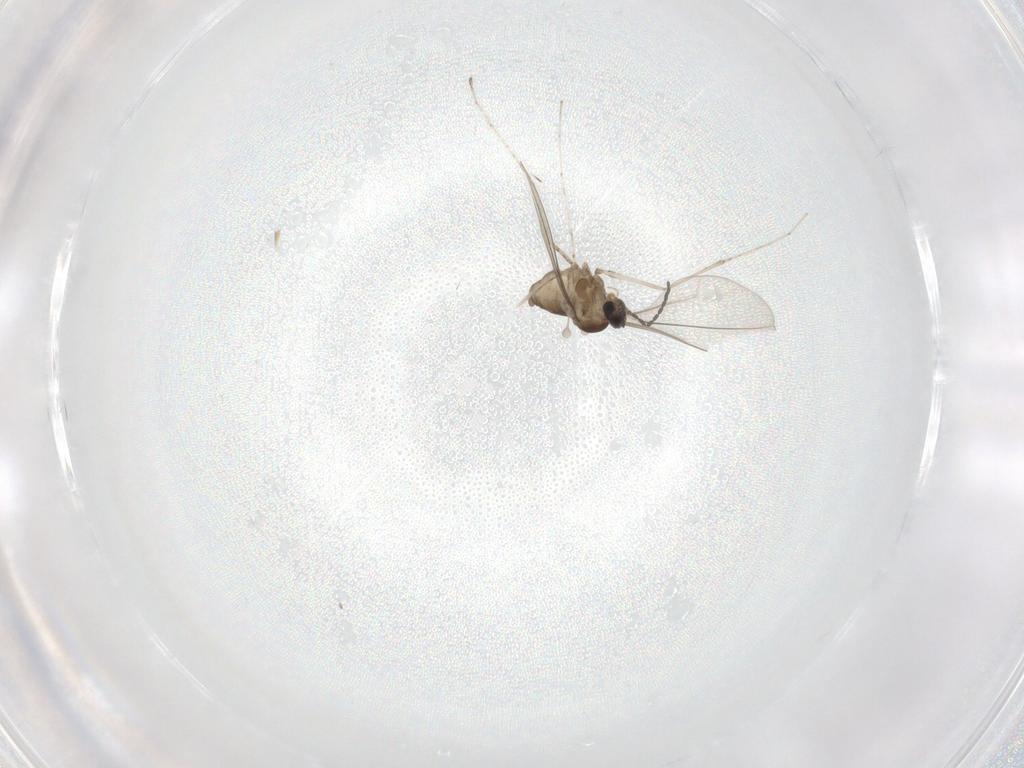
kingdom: Animalia
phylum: Arthropoda
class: Insecta
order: Diptera
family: Cecidomyiidae
